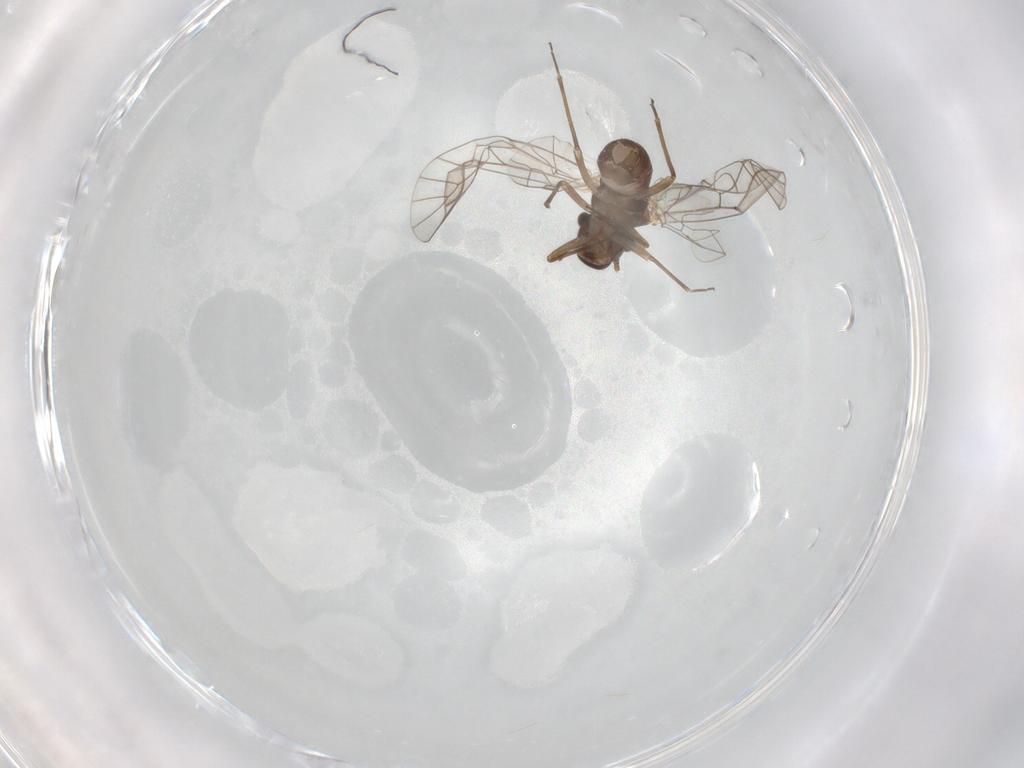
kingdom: Animalia
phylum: Arthropoda
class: Insecta
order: Psocodea
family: Lachesillidae
